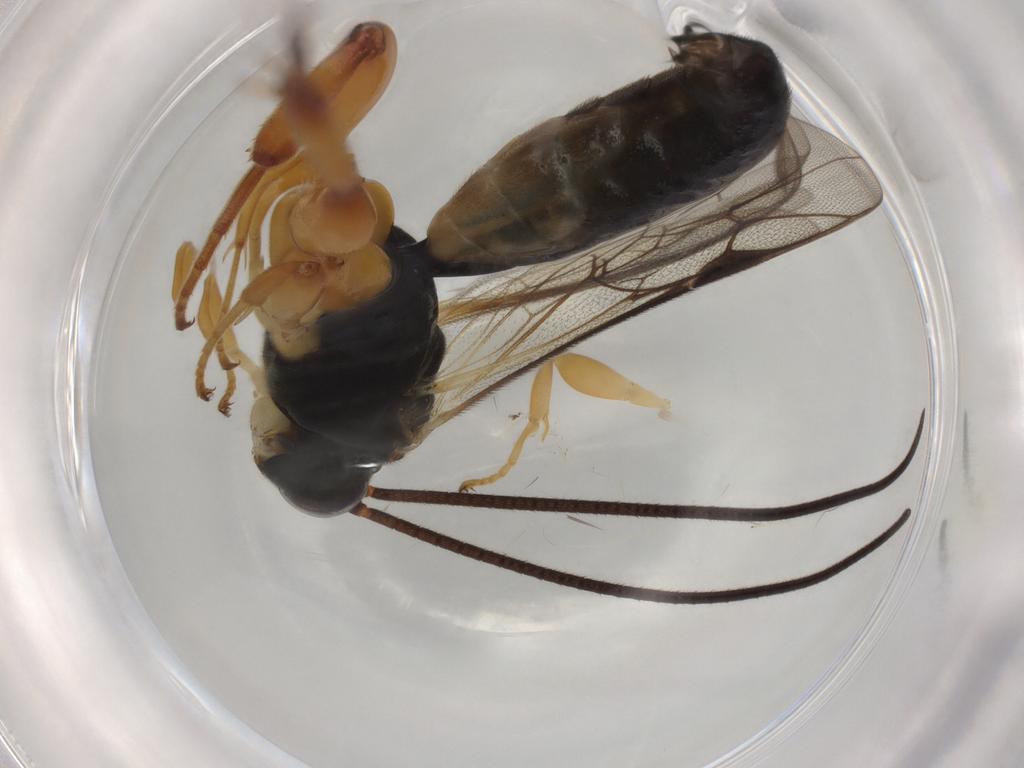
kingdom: Animalia
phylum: Arthropoda
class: Insecta
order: Hymenoptera
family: Ichneumonidae
